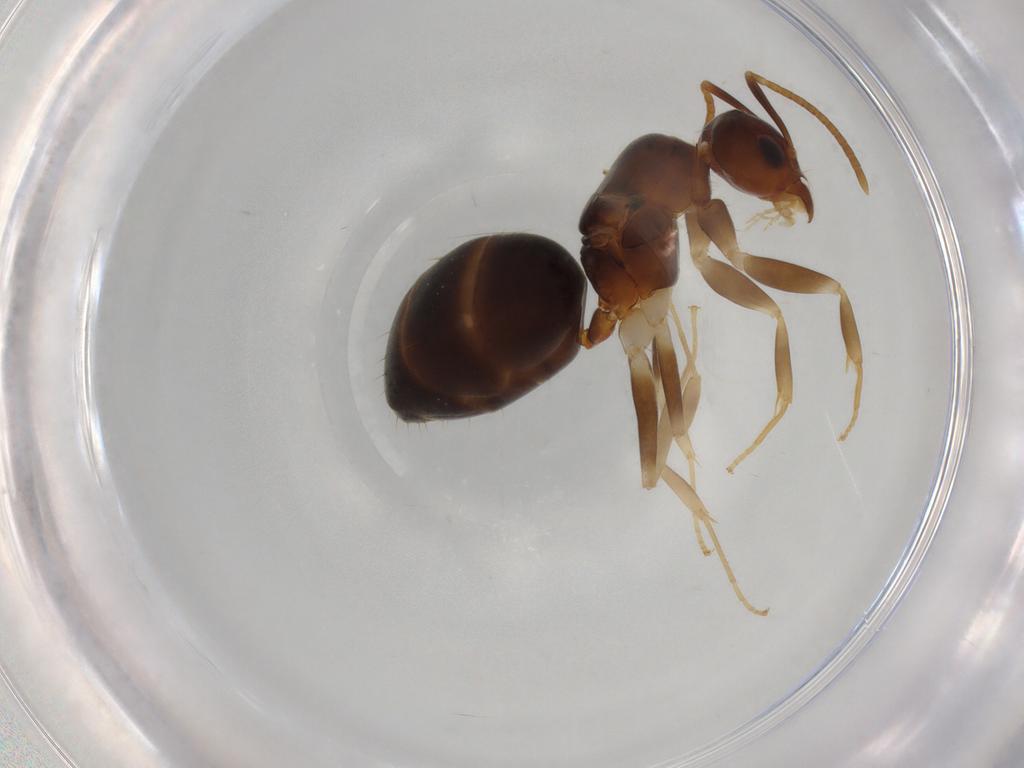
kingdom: Animalia
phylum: Arthropoda
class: Insecta
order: Hymenoptera
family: Formicidae
